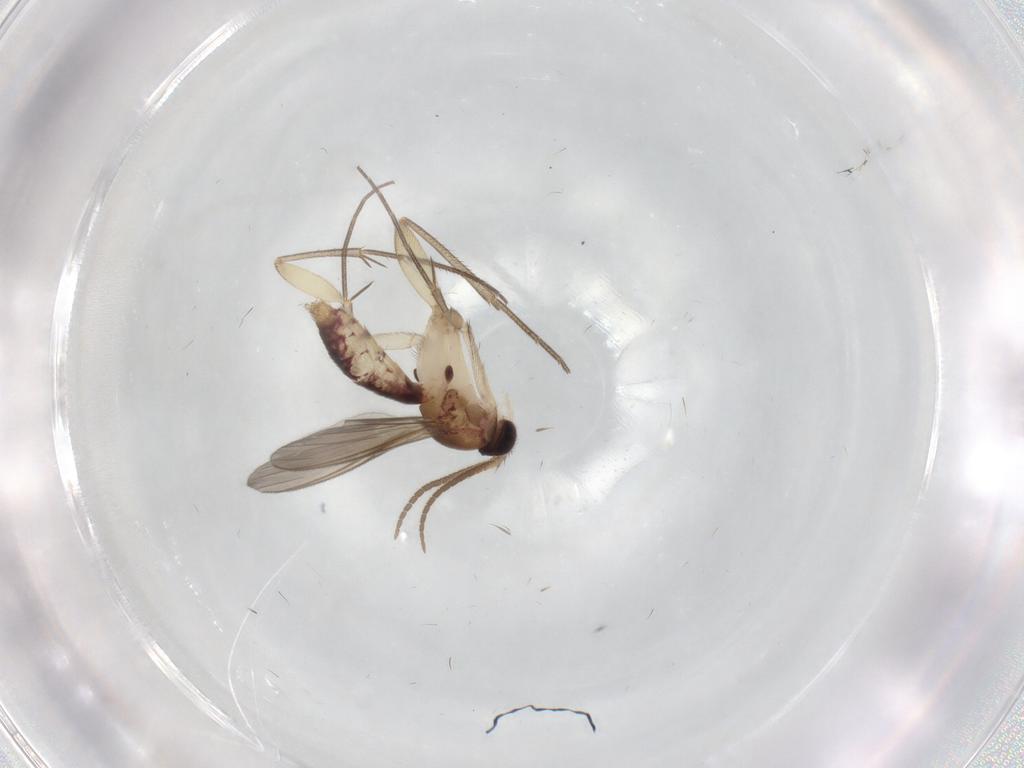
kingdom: Animalia
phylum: Arthropoda
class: Insecta
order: Diptera
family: Mycetophilidae
